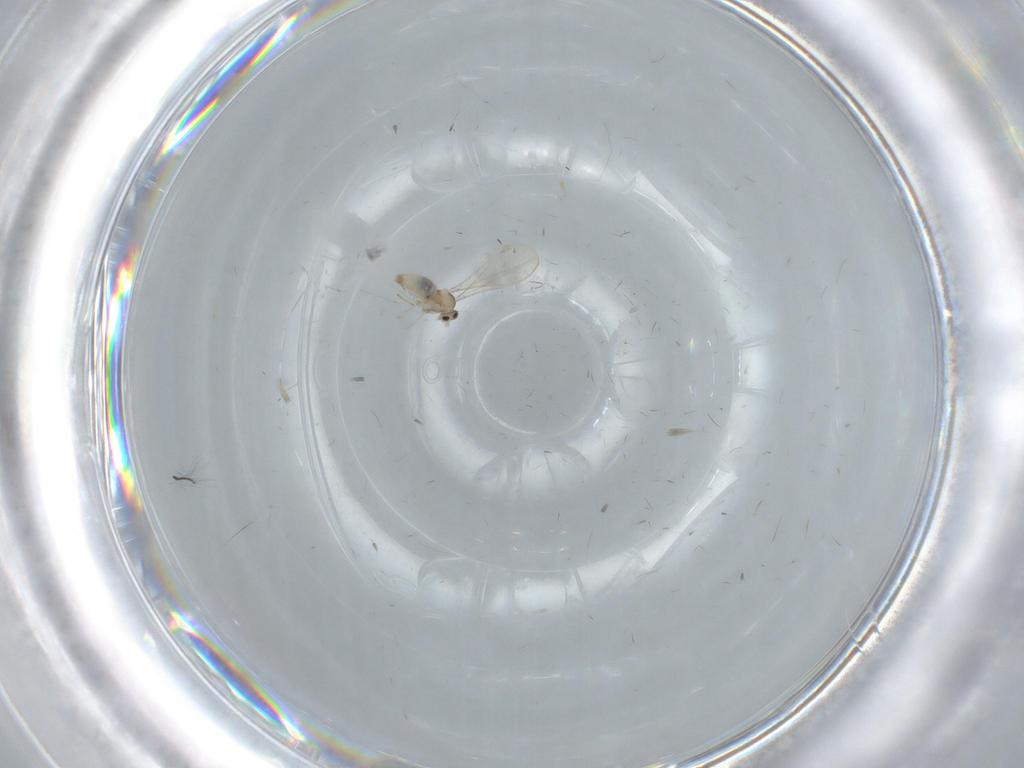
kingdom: Animalia
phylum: Arthropoda
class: Insecta
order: Diptera
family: Cecidomyiidae
